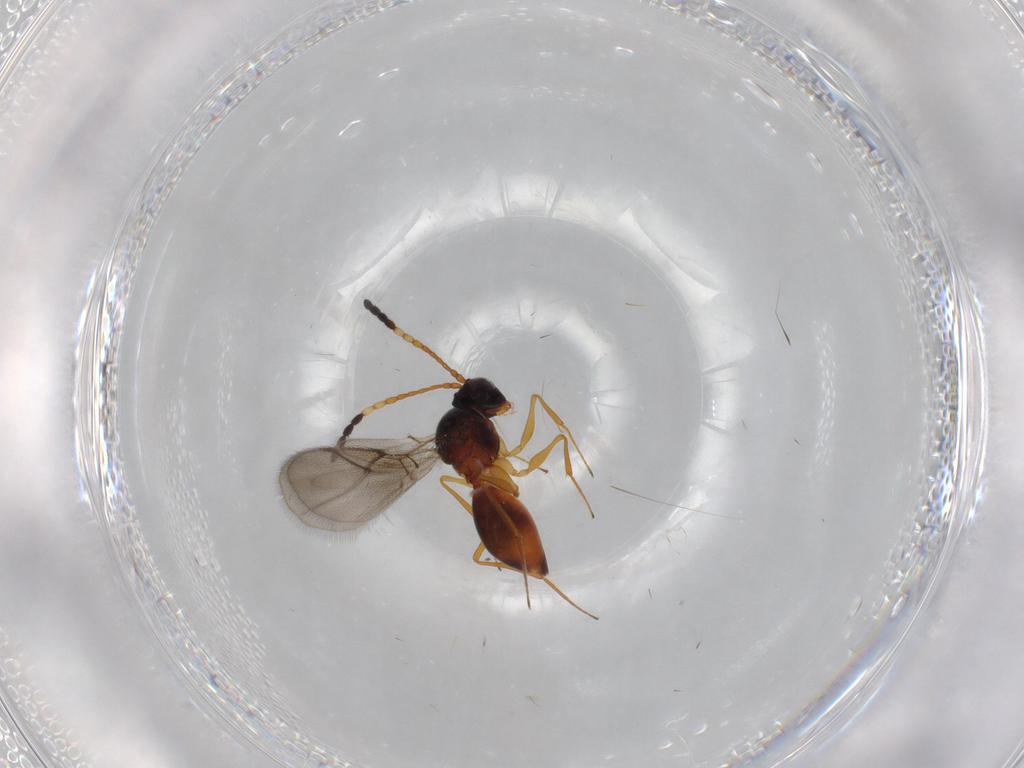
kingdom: Animalia
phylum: Arthropoda
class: Insecta
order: Hymenoptera
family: Figitidae
